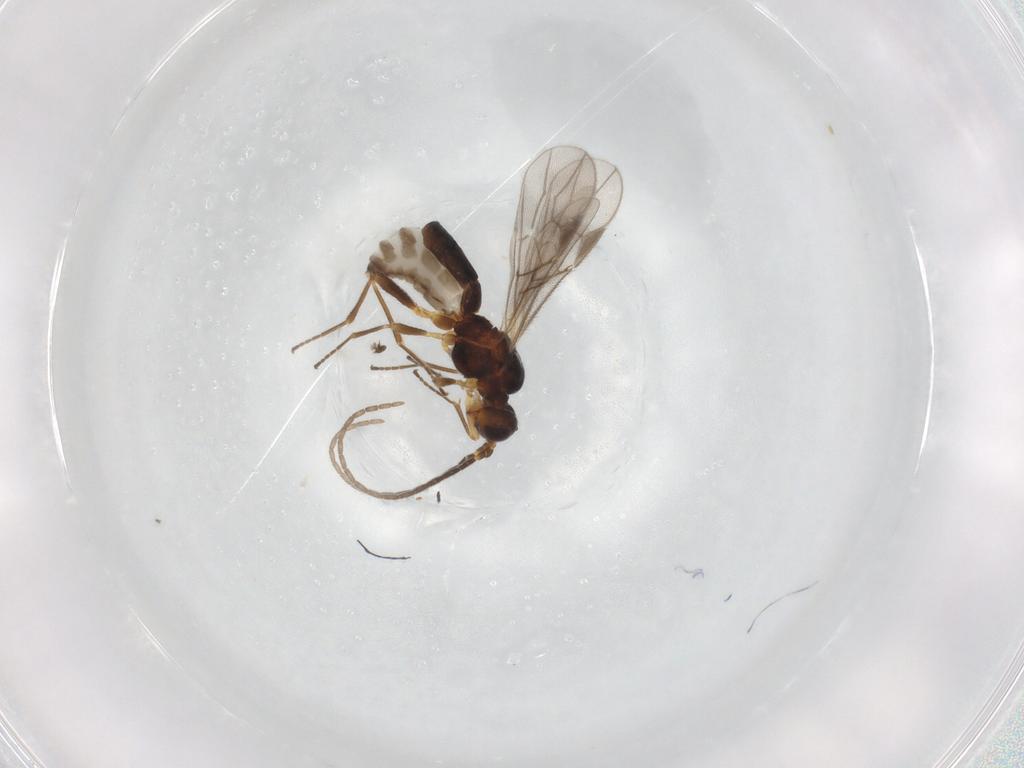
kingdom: Animalia
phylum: Arthropoda
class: Insecta
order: Hymenoptera
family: Braconidae
